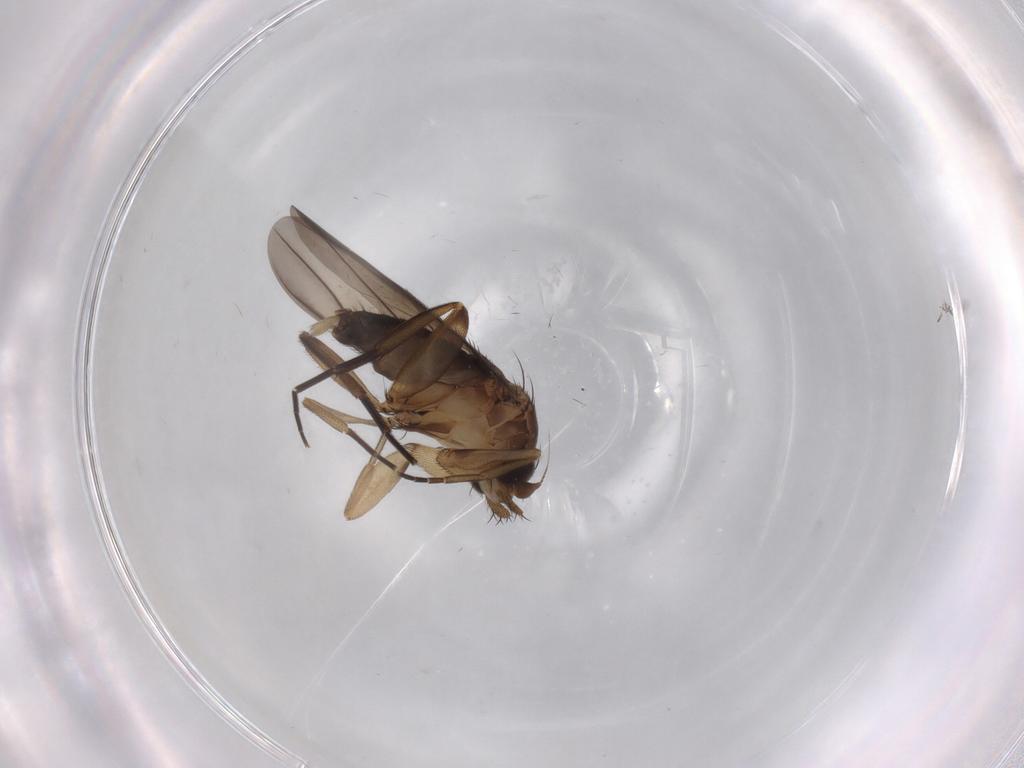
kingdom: Animalia
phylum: Arthropoda
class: Insecta
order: Diptera
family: Phoridae
